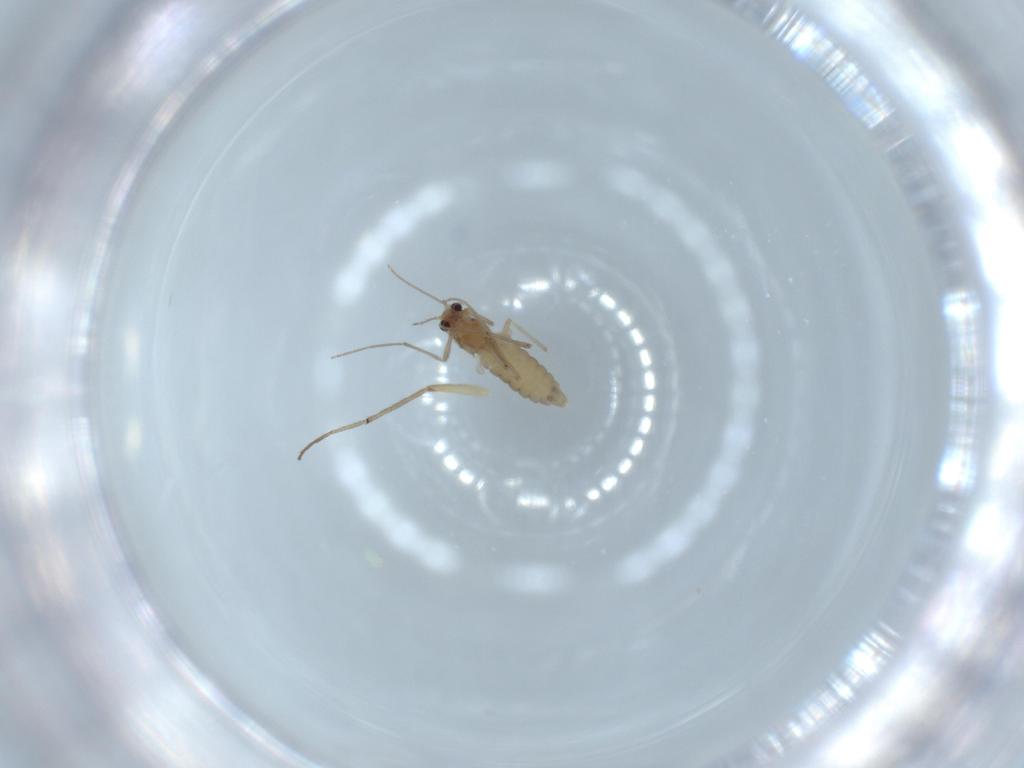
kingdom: Animalia
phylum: Arthropoda
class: Insecta
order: Diptera
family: Chironomidae
